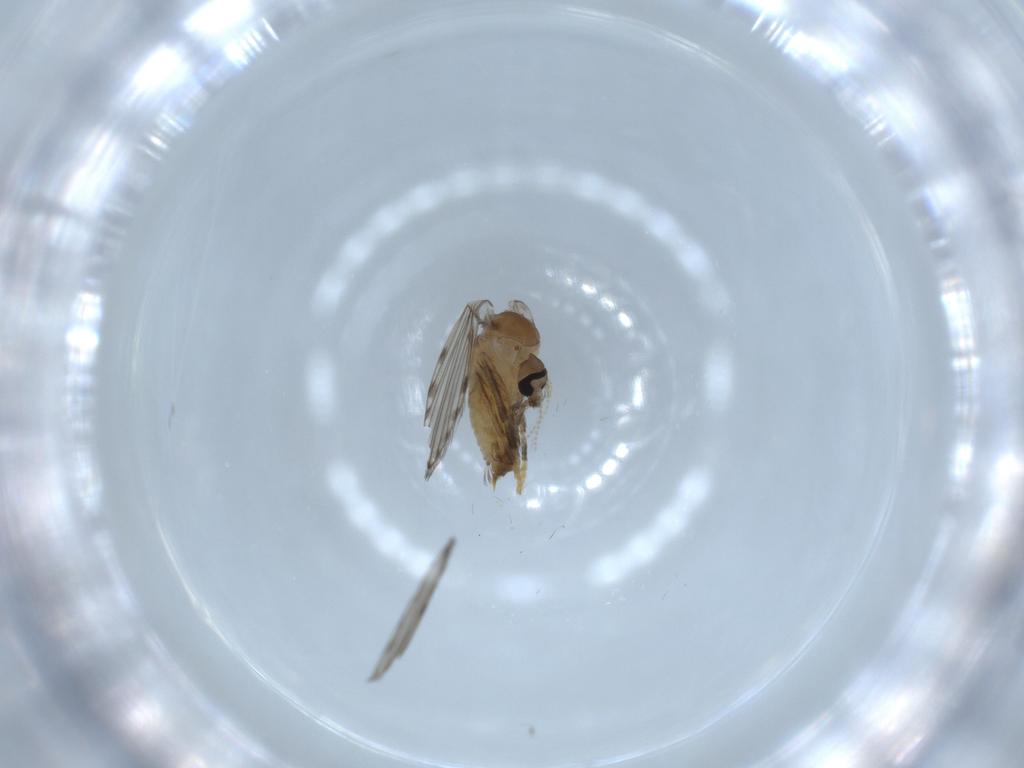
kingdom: Animalia
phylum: Arthropoda
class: Insecta
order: Diptera
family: Psychodidae
